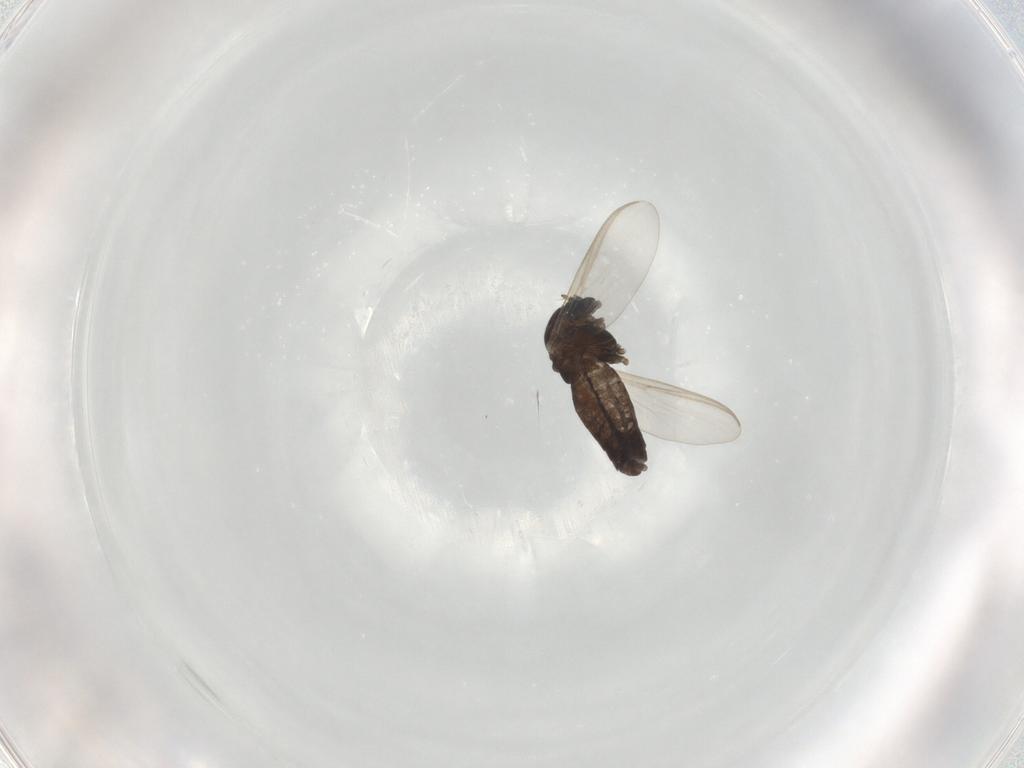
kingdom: Animalia
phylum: Arthropoda
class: Insecta
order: Diptera
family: Chironomidae
